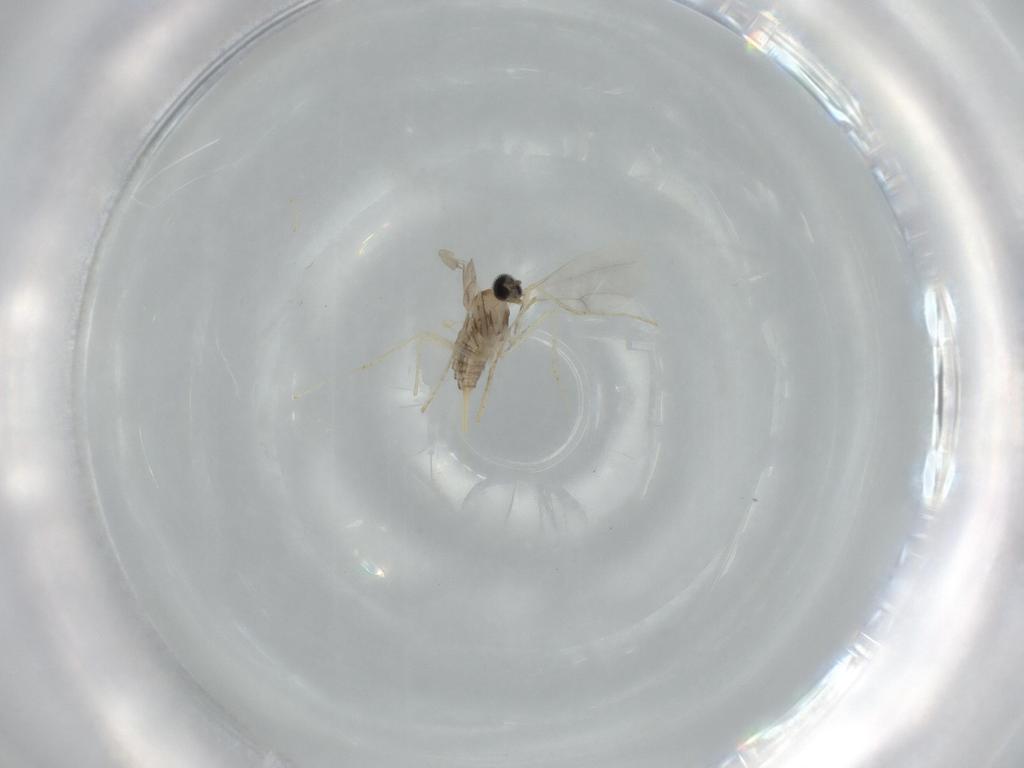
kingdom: Animalia
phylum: Arthropoda
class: Insecta
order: Diptera
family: Cecidomyiidae
